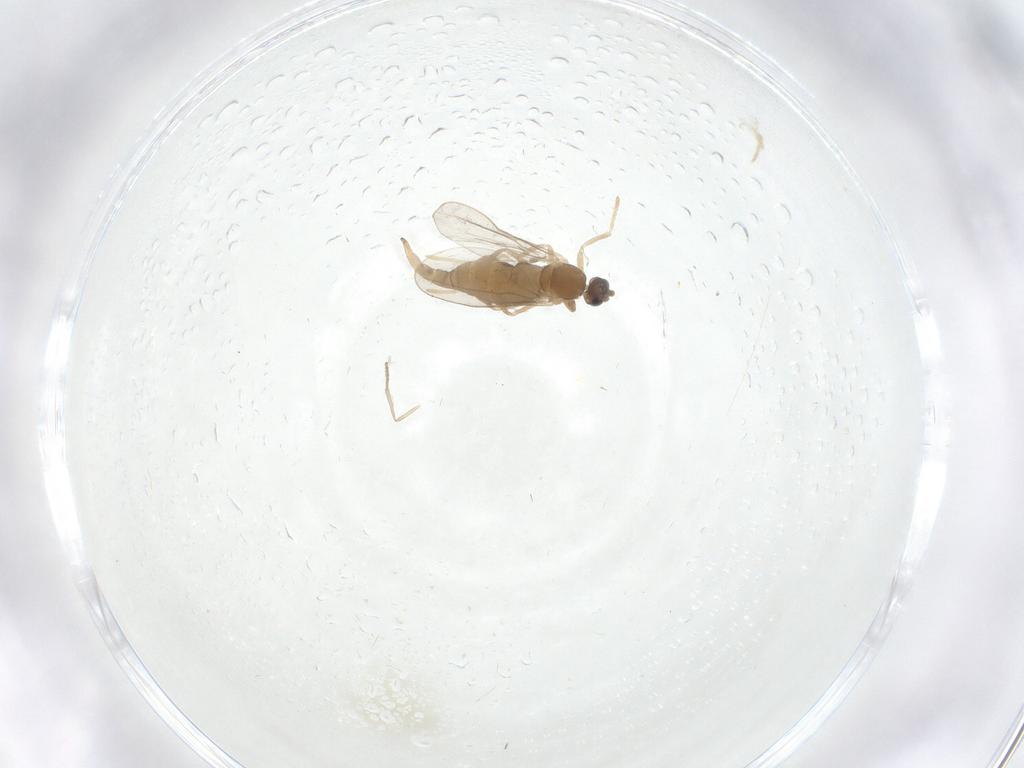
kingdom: Animalia
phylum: Arthropoda
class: Insecta
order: Diptera
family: Cecidomyiidae
